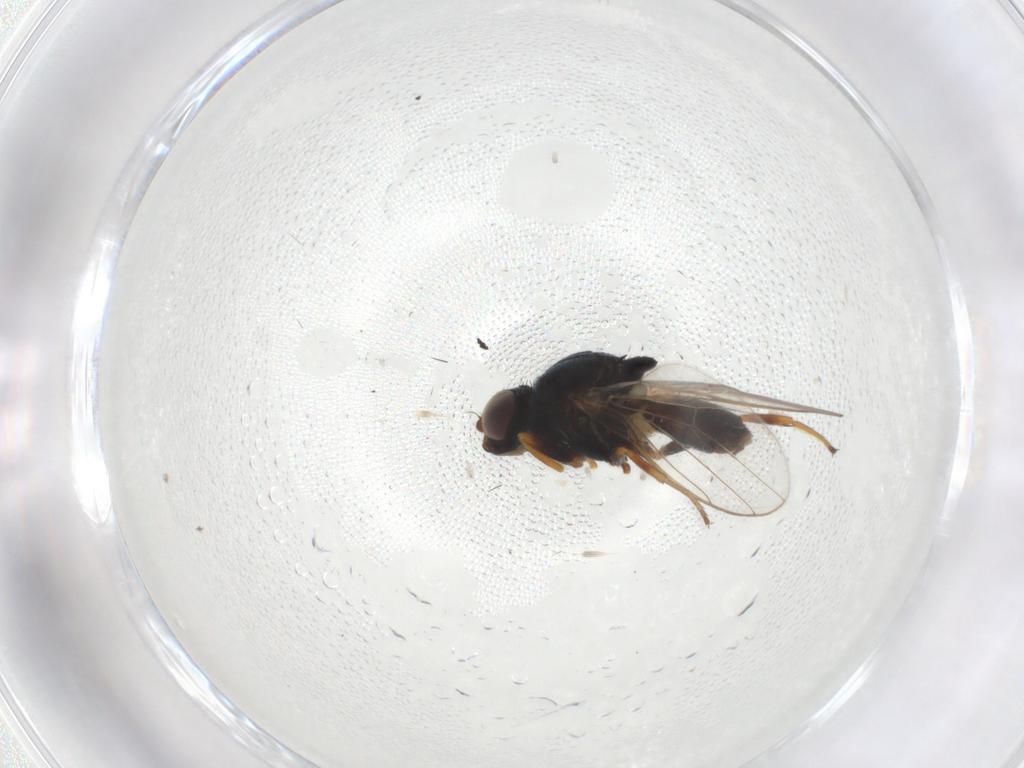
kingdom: Animalia
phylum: Arthropoda
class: Insecta
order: Diptera
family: Chloropidae
